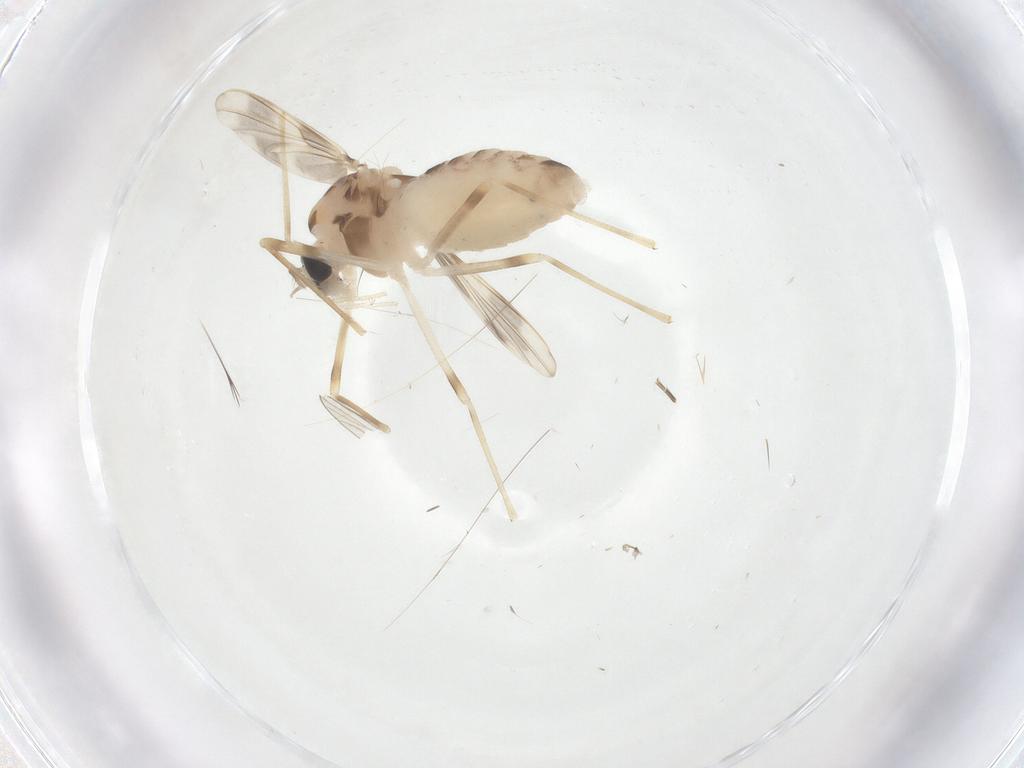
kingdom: Animalia
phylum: Arthropoda
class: Insecta
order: Diptera
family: Chironomidae
